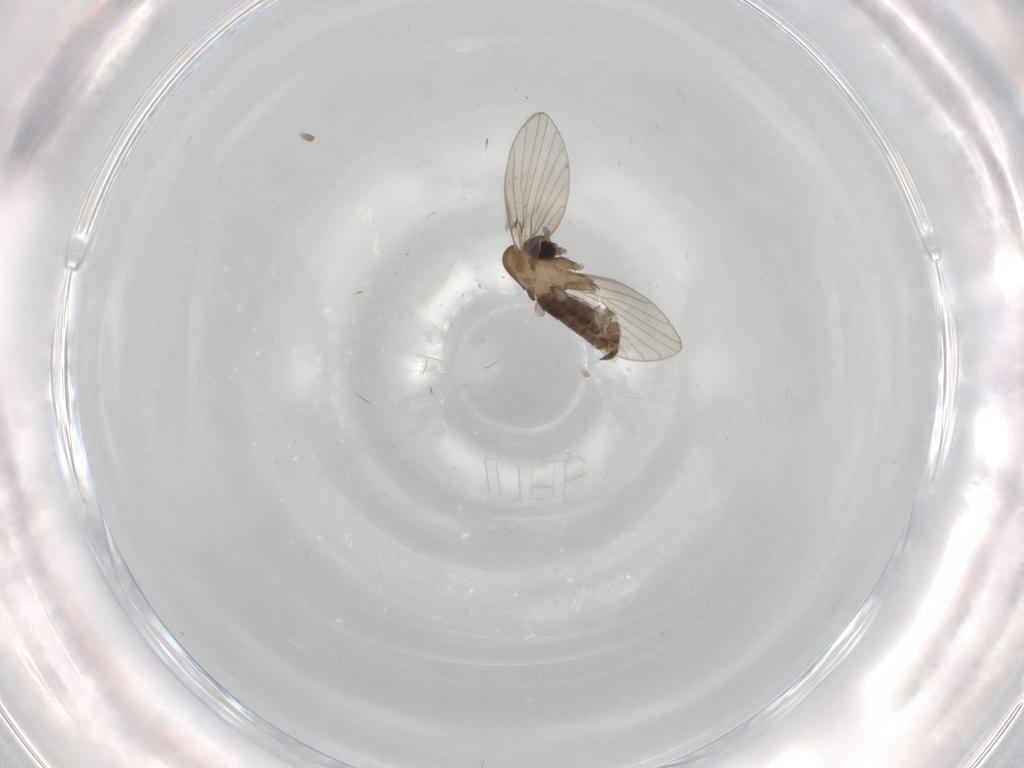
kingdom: Animalia
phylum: Arthropoda
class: Insecta
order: Diptera
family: Psychodidae
